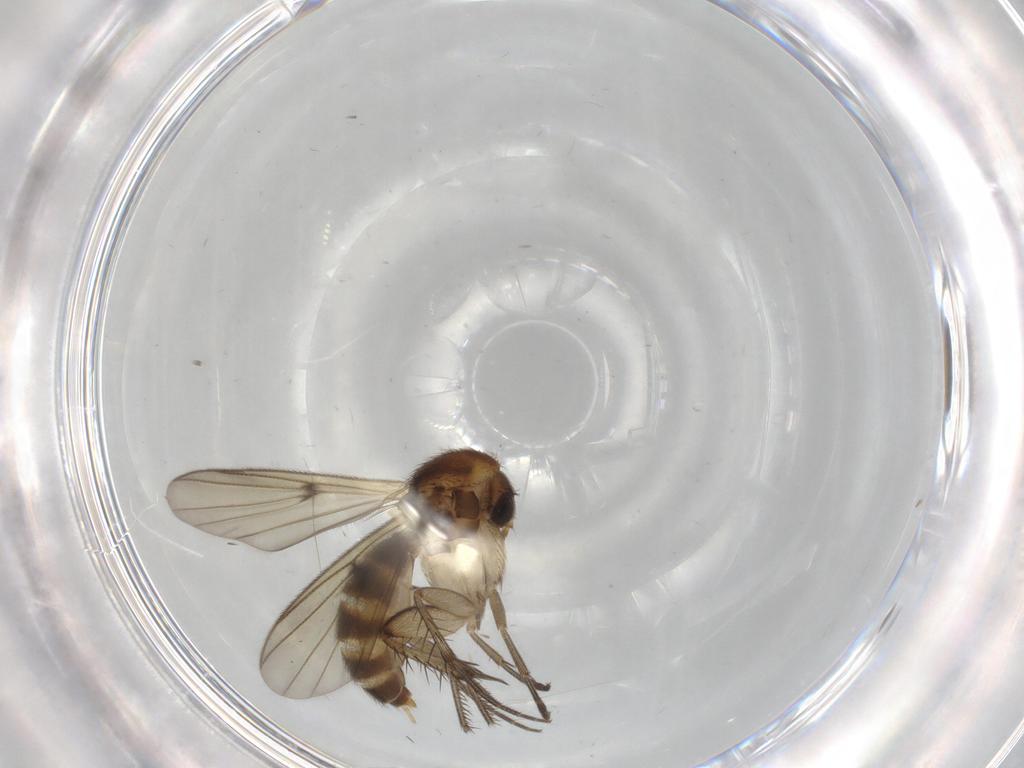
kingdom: Animalia
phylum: Arthropoda
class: Insecta
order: Diptera
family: Mycetophilidae
